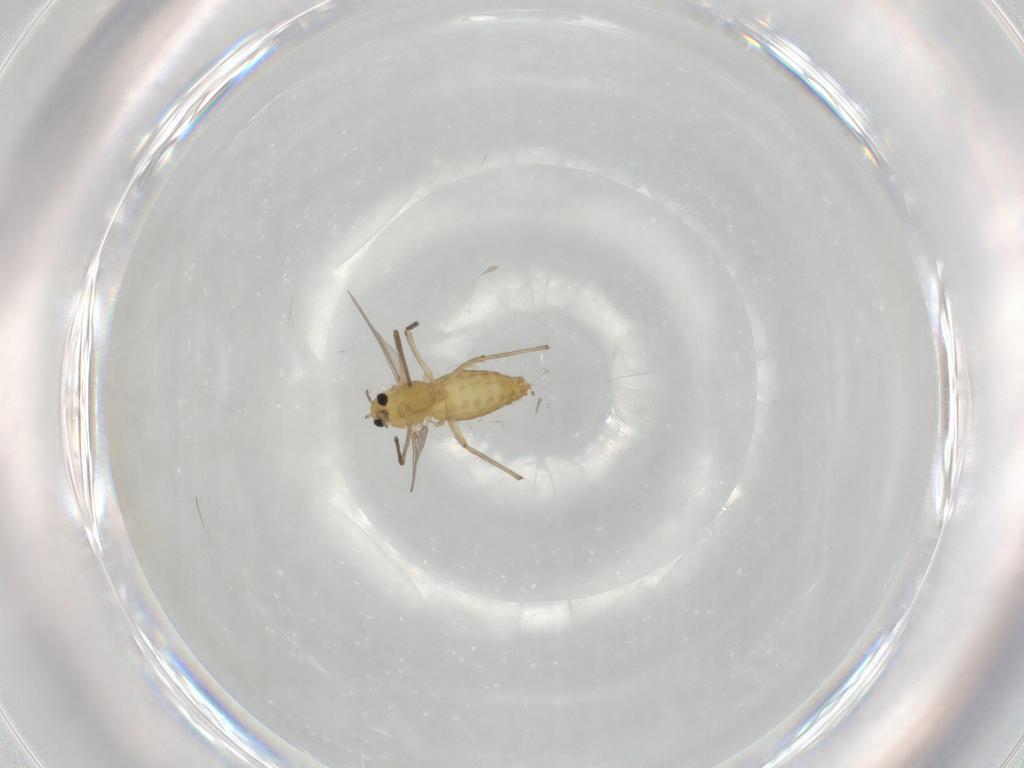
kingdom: Animalia
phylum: Arthropoda
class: Insecta
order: Diptera
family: Chironomidae
